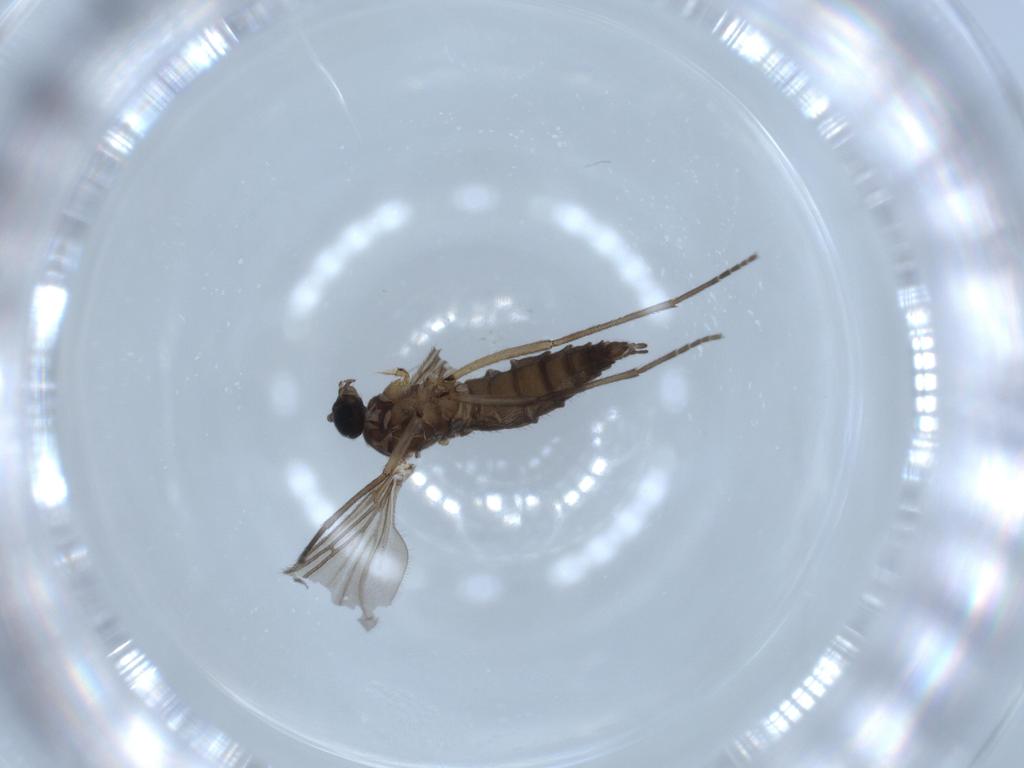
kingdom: Animalia
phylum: Arthropoda
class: Insecta
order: Diptera
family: Sciaridae
